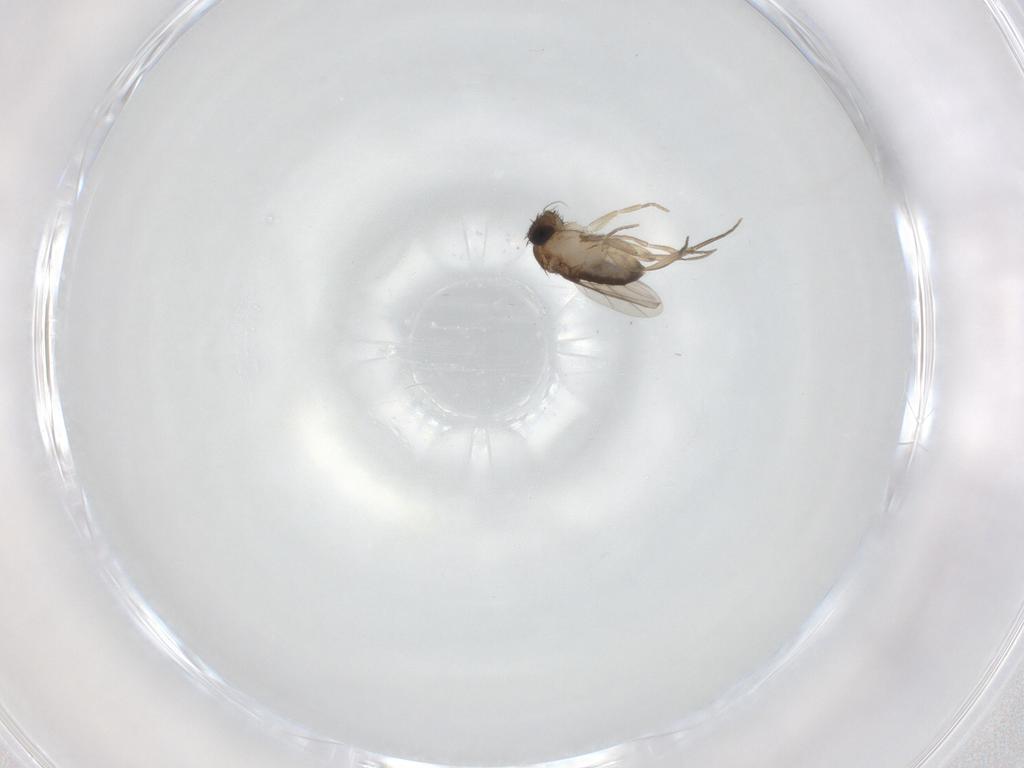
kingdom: Animalia
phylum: Arthropoda
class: Insecta
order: Diptera
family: Phoridae
